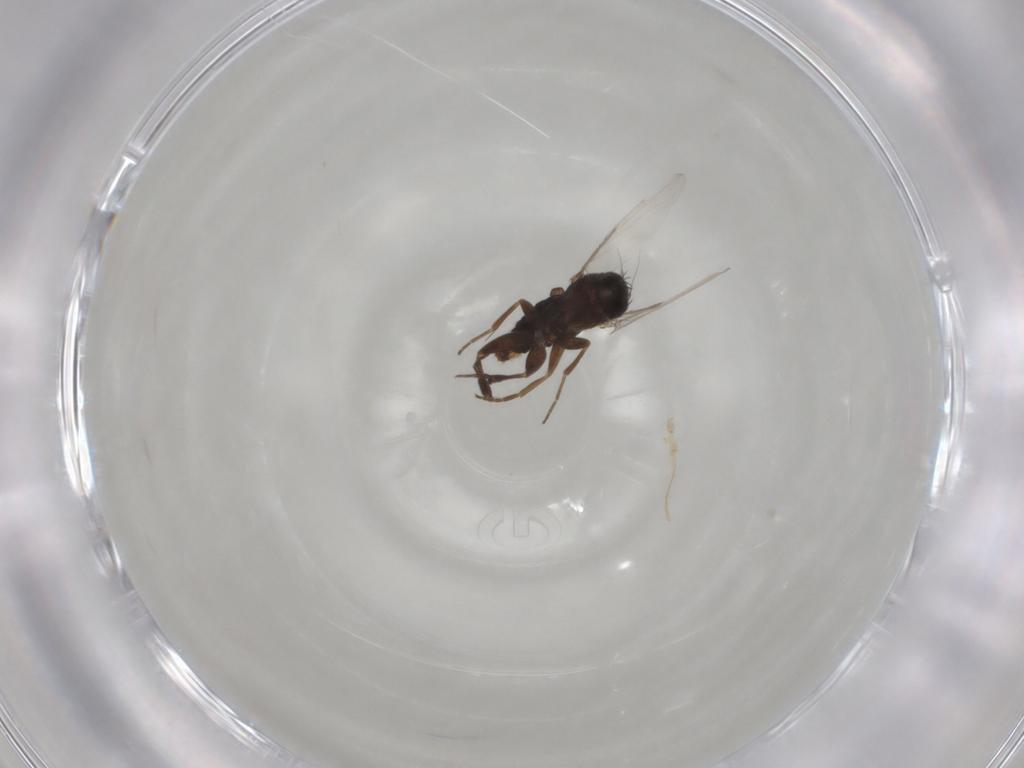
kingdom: Animalia
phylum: Arthropoda
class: Insecta
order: Diptera
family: Phoridae
